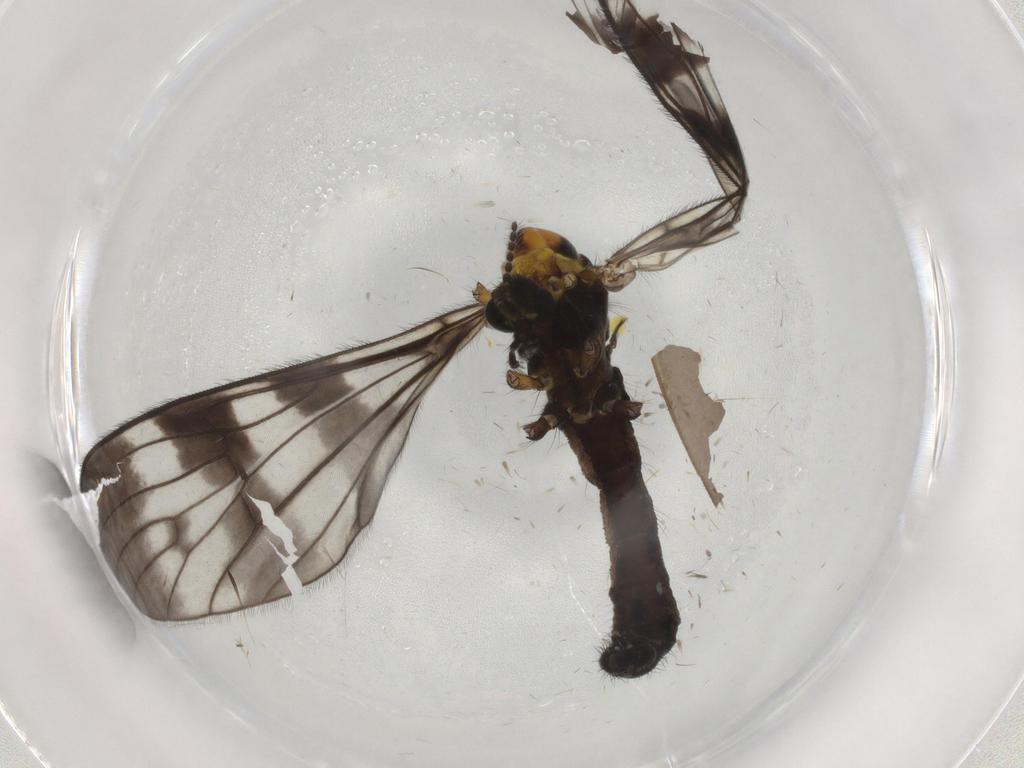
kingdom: Animalia
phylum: Arthropoda
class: Insecta
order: Diptera
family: Limoniidae
